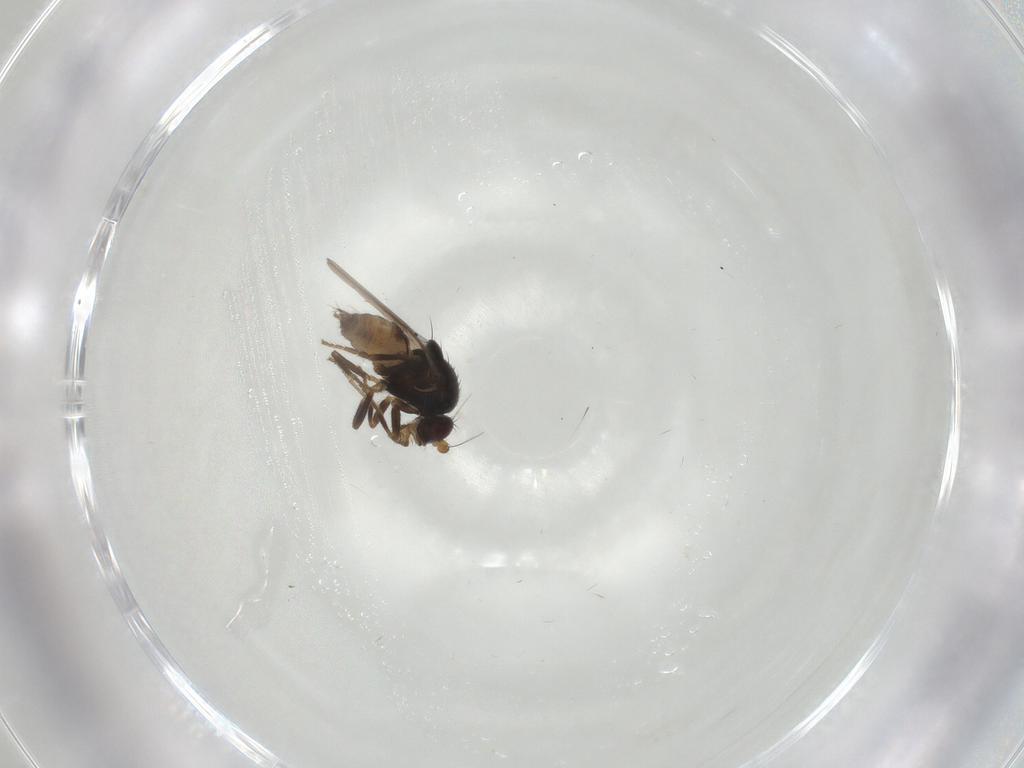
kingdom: Animalia
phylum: Arthropoda
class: Insecta
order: Diptera
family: Sphaeroceridae
